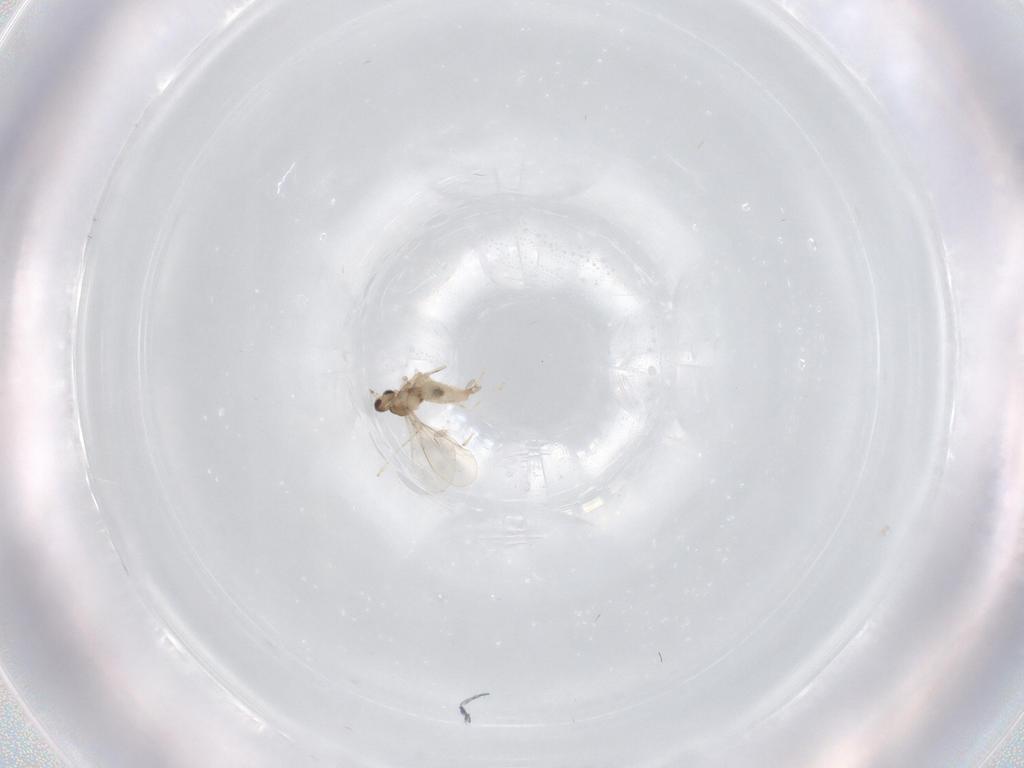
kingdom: Animalia
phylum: Arthropoda
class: Insecta
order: Diptera
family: Cecidomyiidae
